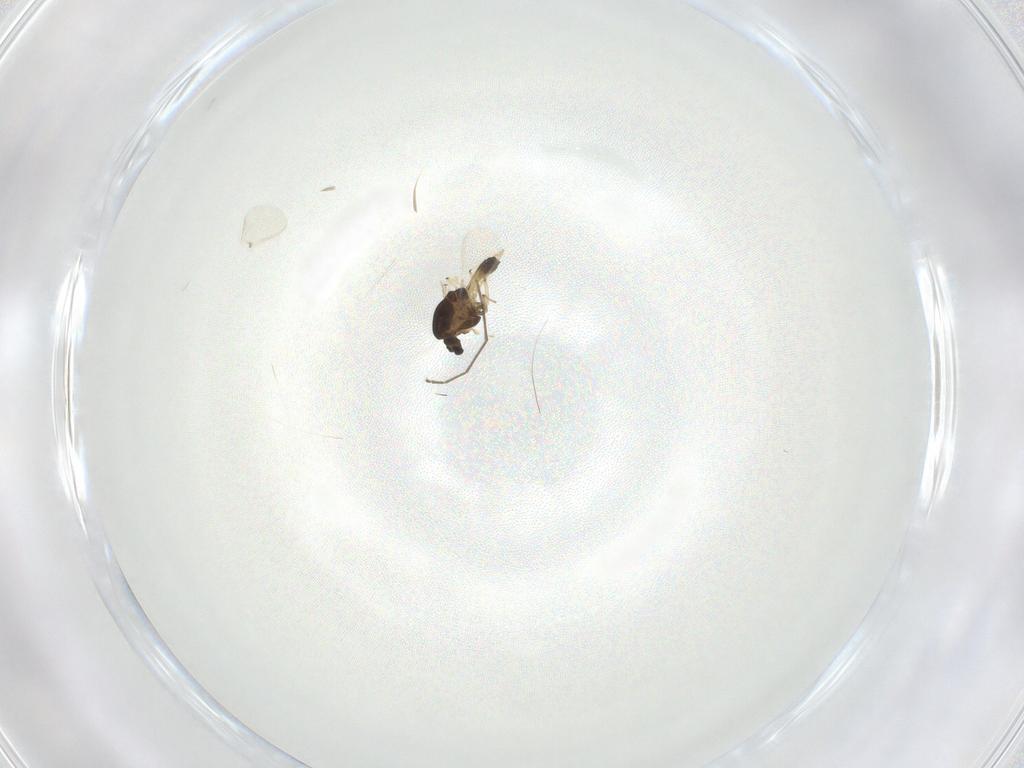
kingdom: Animalia
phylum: Arthropoda
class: Insecta
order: Diptera
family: Chironomidae
